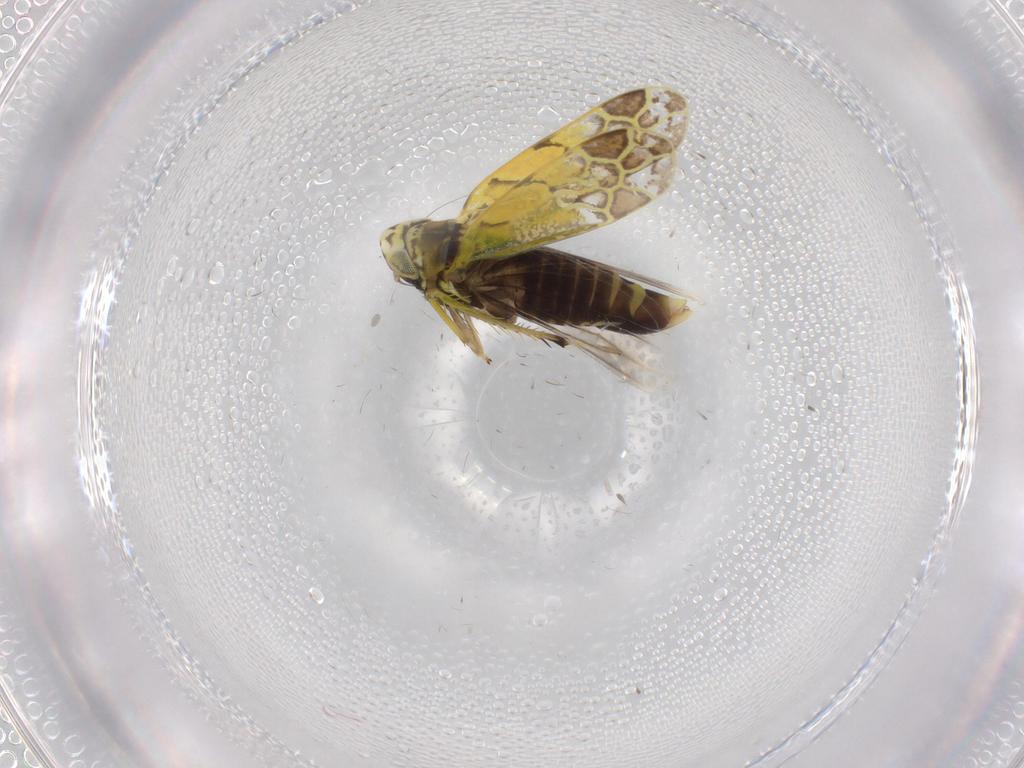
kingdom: Animalia
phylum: Arthropoda
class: Insecta
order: Hemiptera
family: Cicadellidae
